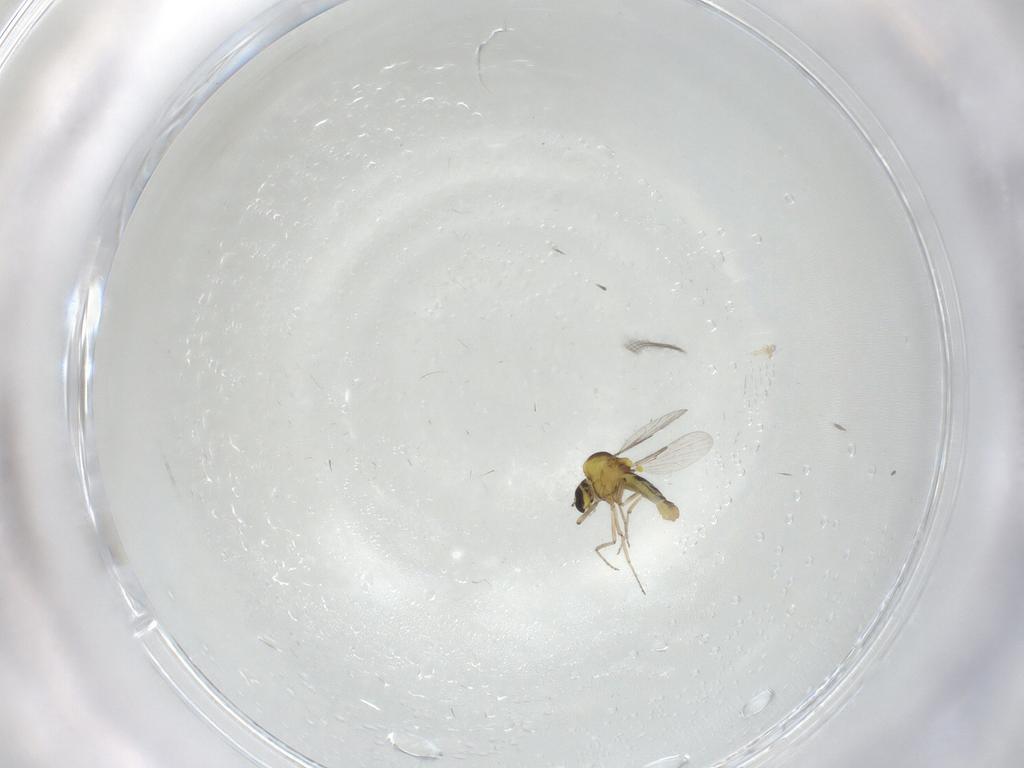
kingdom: Animalia
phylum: Arthropoda
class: Insecta
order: Diptera
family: Ceratopogonidae
